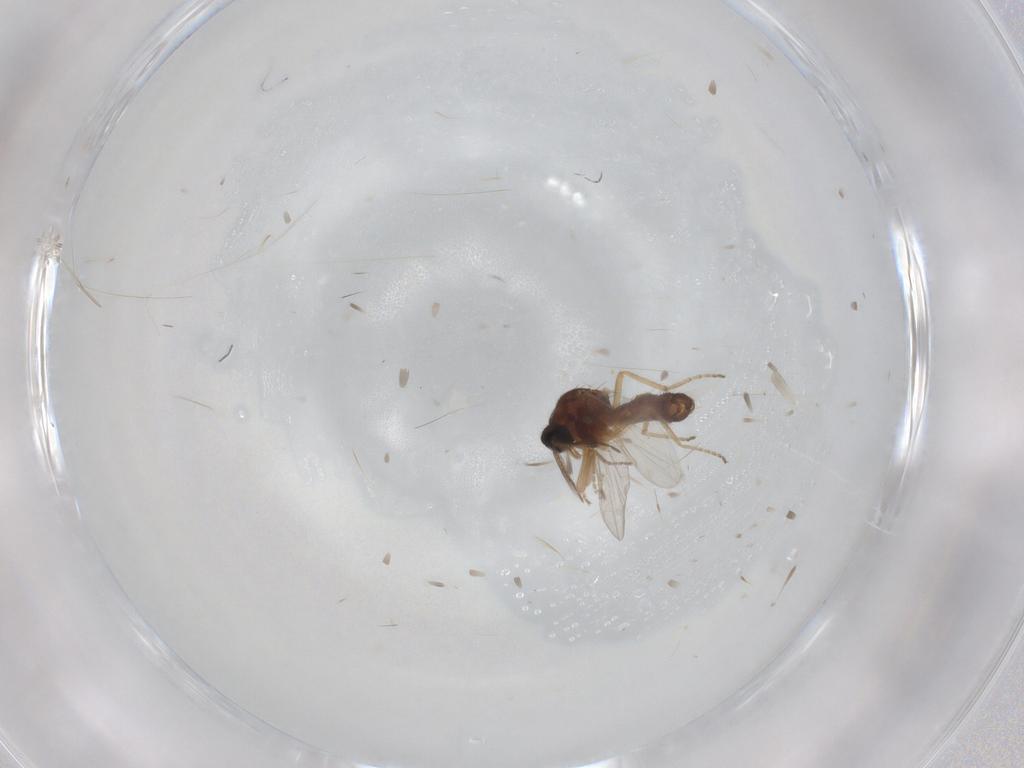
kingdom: Animalia
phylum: Arthropoda
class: Insecta
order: Diptera
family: Ceratopogonidae
